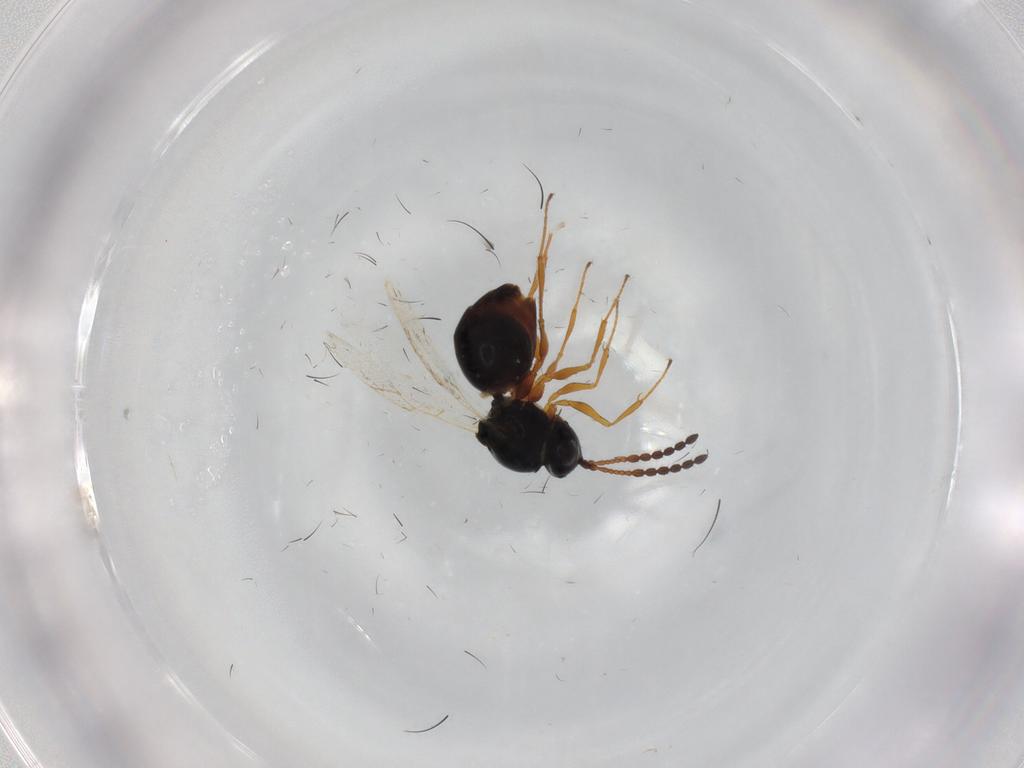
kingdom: Animalia
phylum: Arthropoda
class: Insecta
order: Hymenoptera
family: Figitidae
